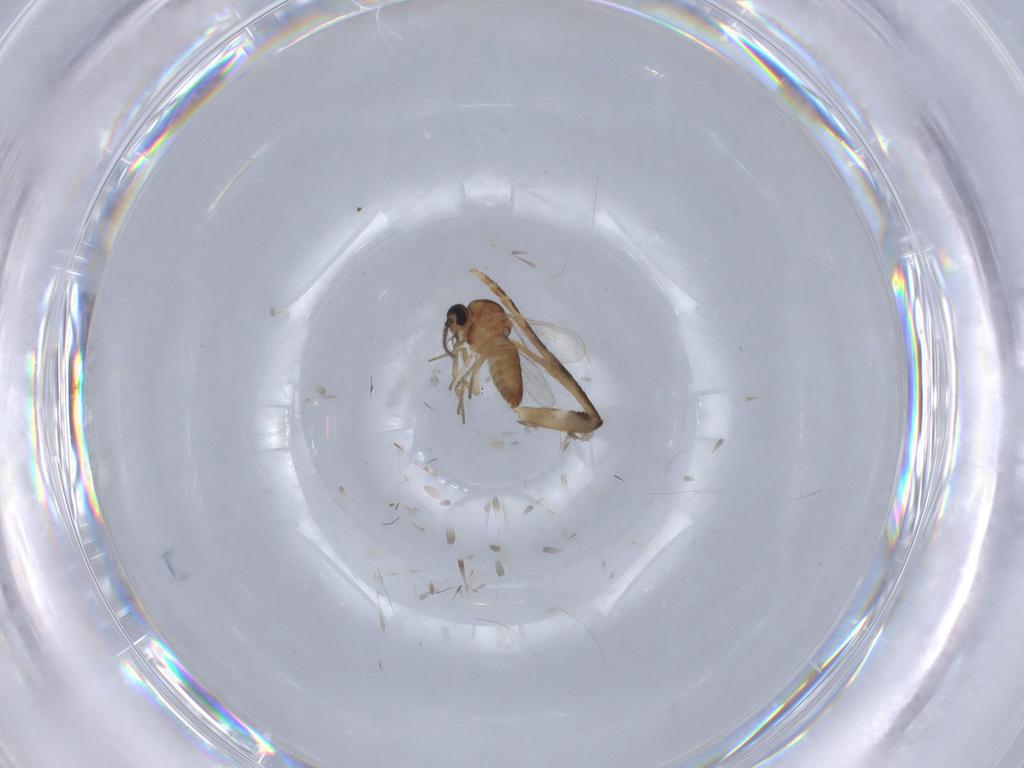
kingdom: Animalia
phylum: Arthropoda
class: Insecta
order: Diptera
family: Ceratopogonidae
